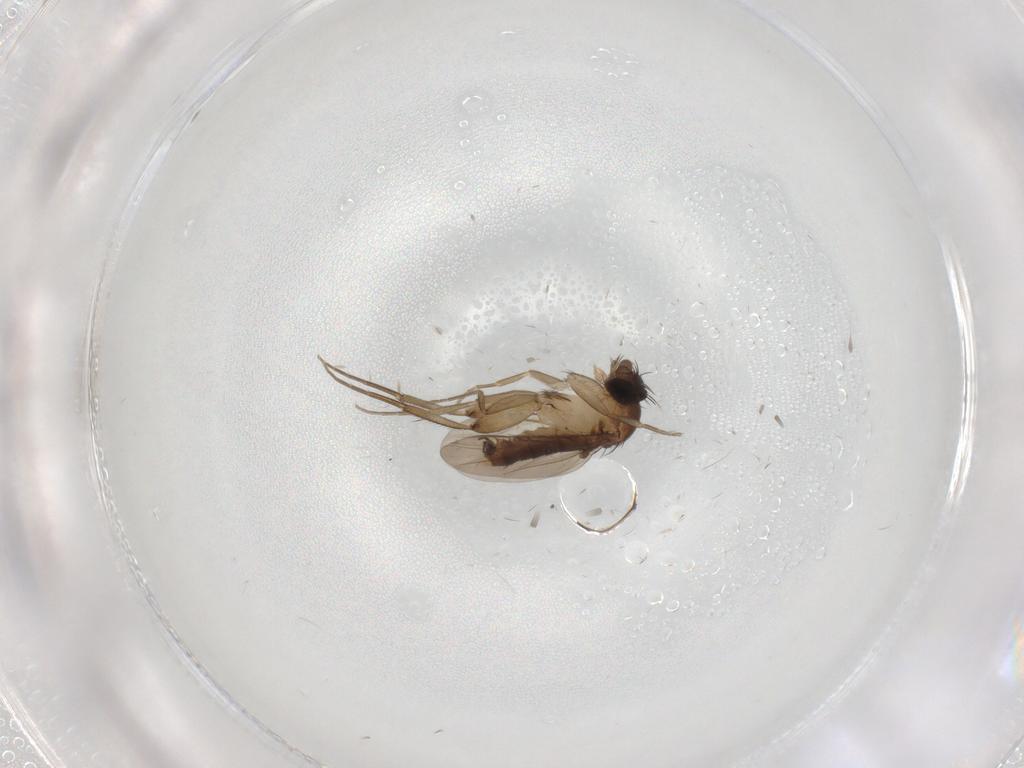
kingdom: Animalia
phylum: Arthropoda
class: Insecta
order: Diptera
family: Phoridae
